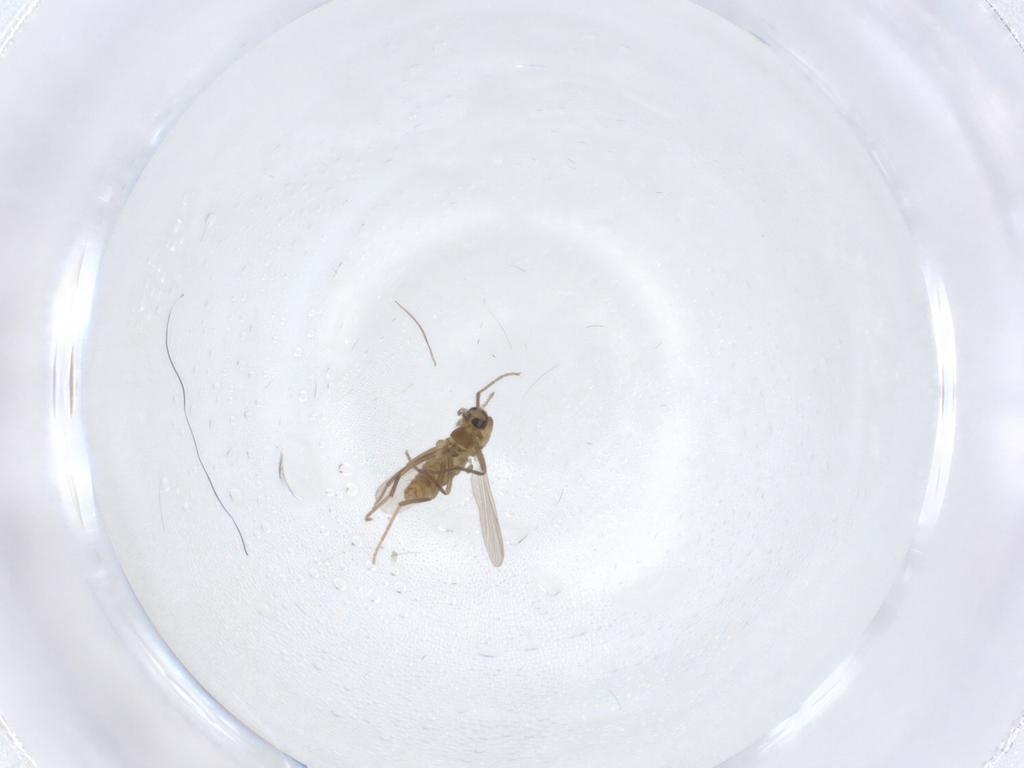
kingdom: Animalia
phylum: Arthropoda
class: Insecta
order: Diptera
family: Chironomidae
